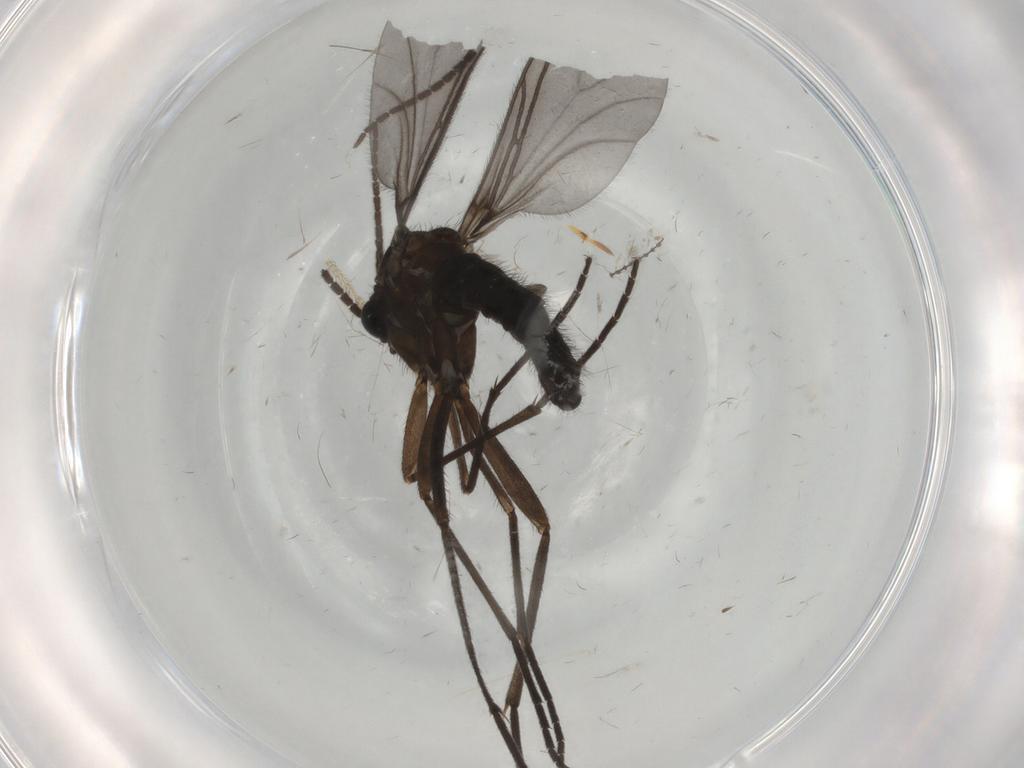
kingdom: Animalia
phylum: Arthropoda
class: Insecta
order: Diptera
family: Sciaridae
